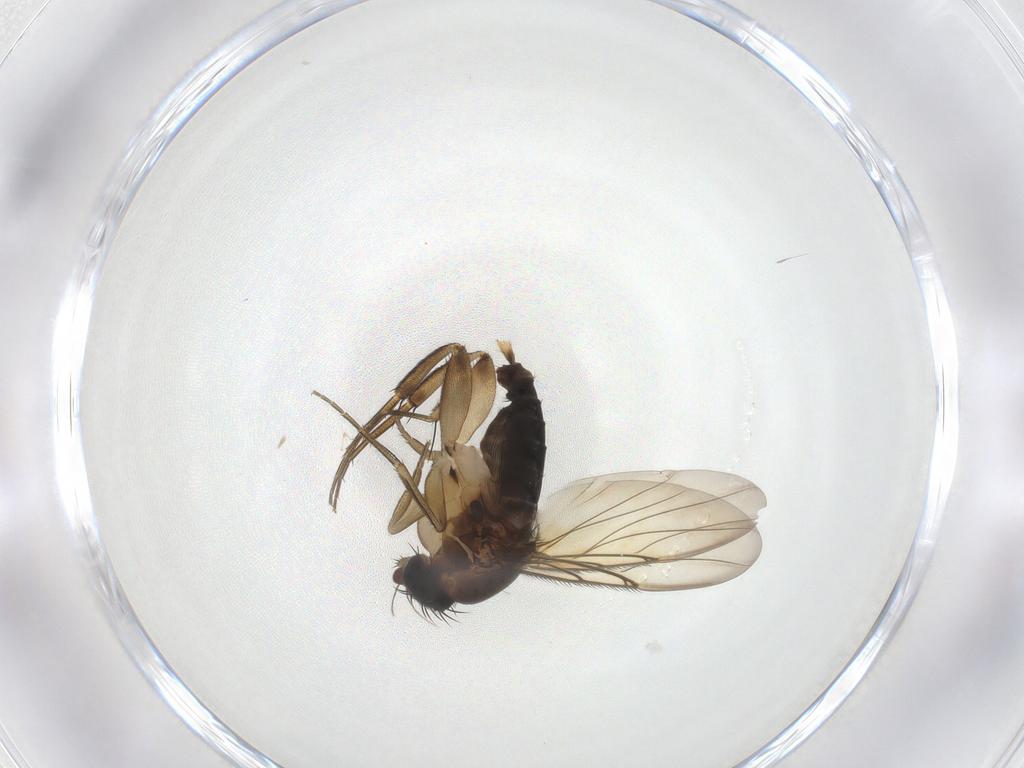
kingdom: Animalia
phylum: Arthropoda
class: Insecta
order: Diptera
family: Phoridae
